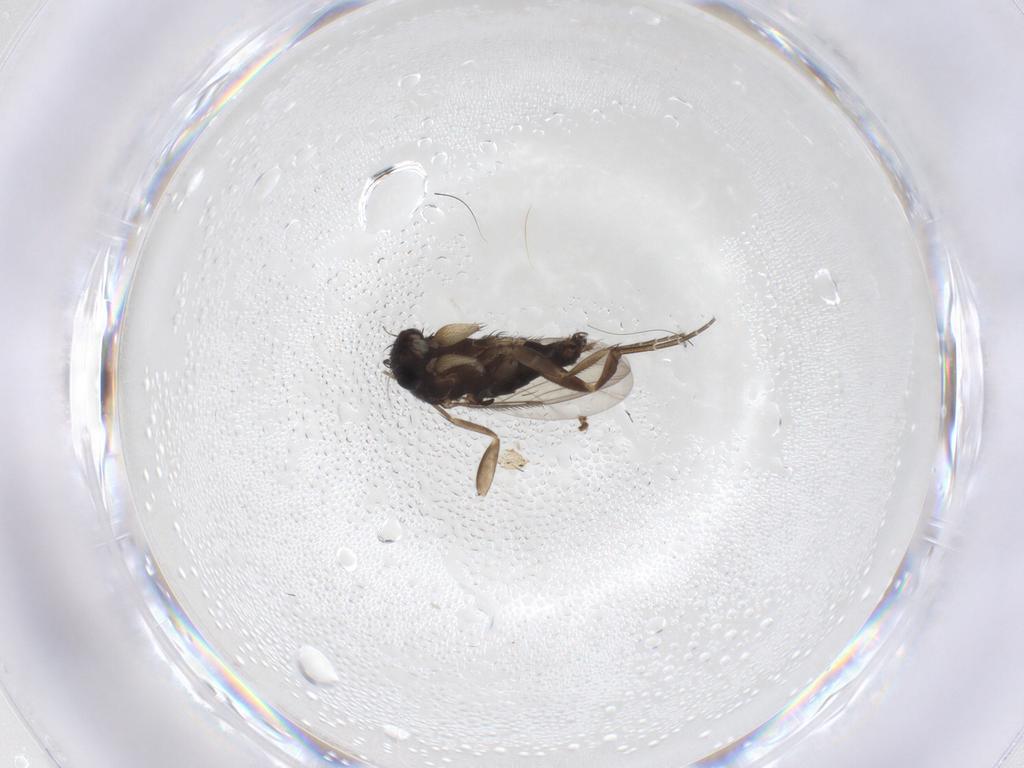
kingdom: Animalia
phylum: Arthropoda
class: Insecta
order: Diptera
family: Phoridae
